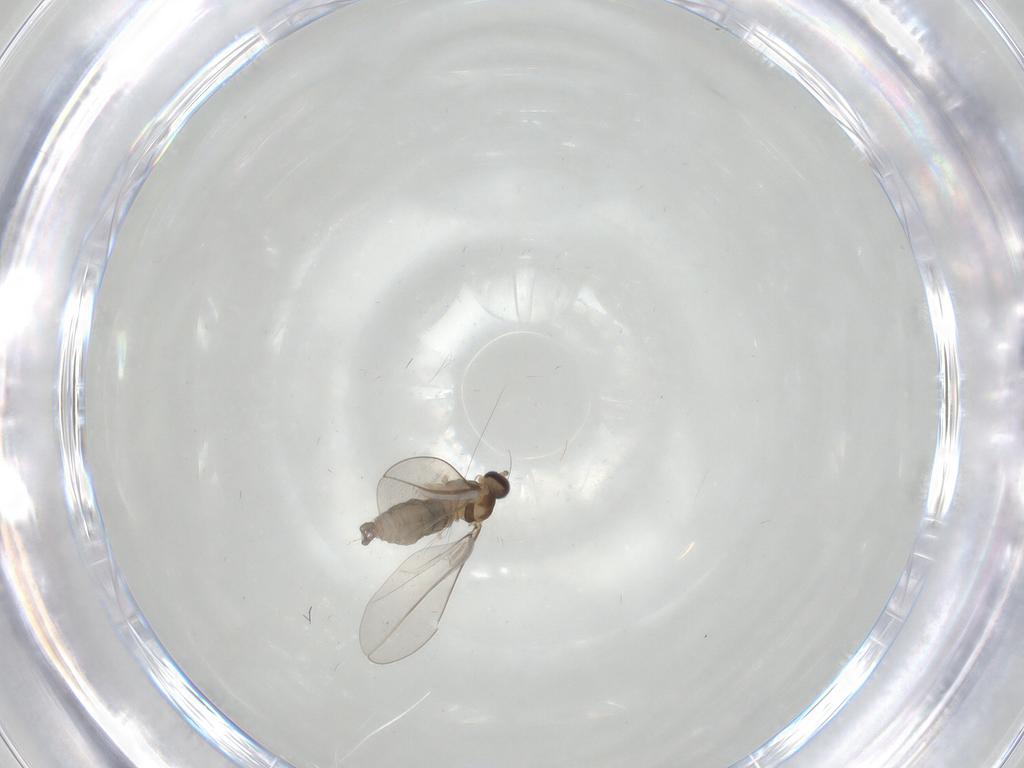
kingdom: Animalia
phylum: Arthropoda
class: Insecta
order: Diptera
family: Cecidomyiidae
